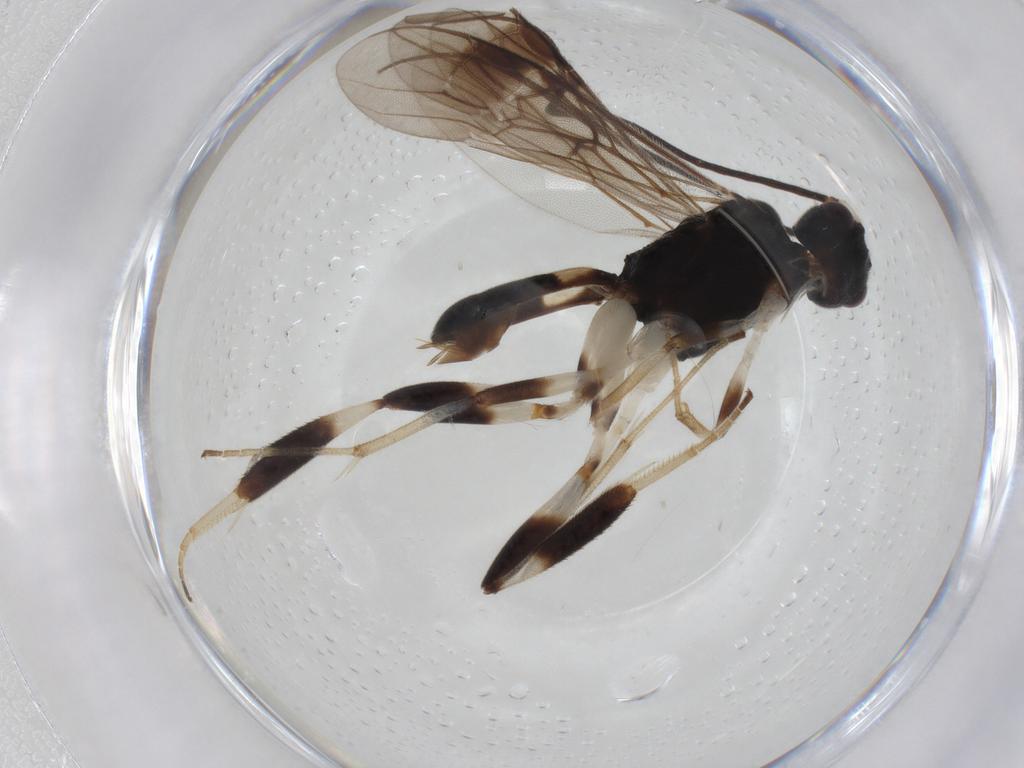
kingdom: Animalia
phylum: Arthropoda
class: Insecta
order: Hymenoptera
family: Braconidae
